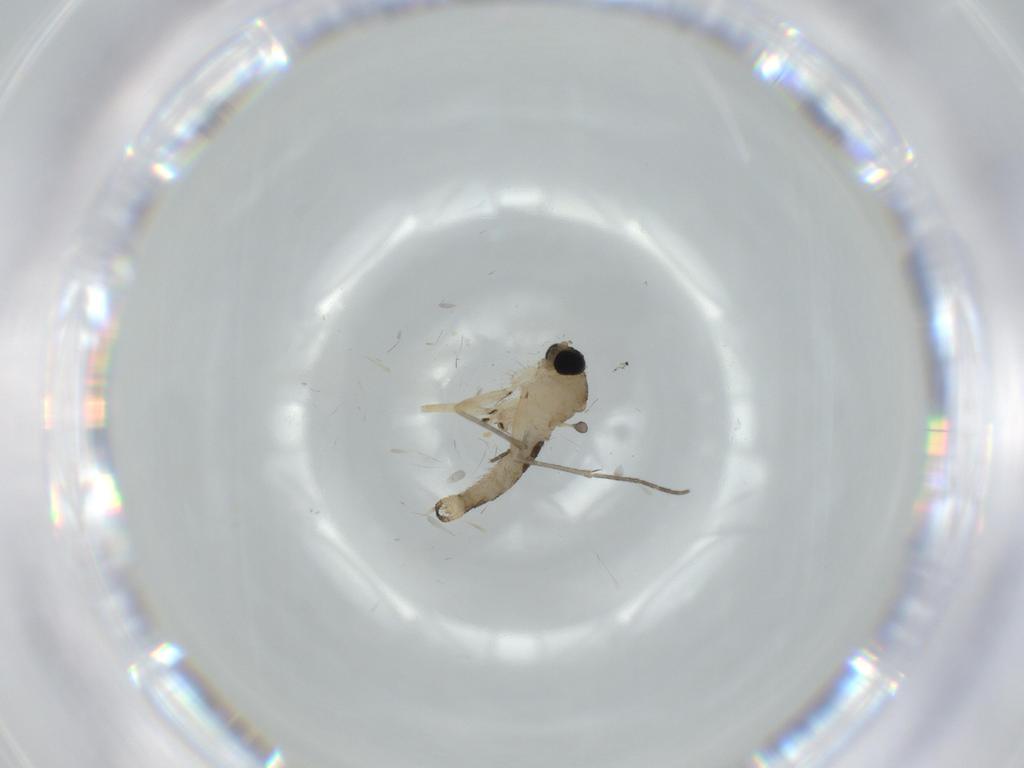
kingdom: Animalia
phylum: Arthropoda
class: Insecta
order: Diptera
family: Sciaridae
